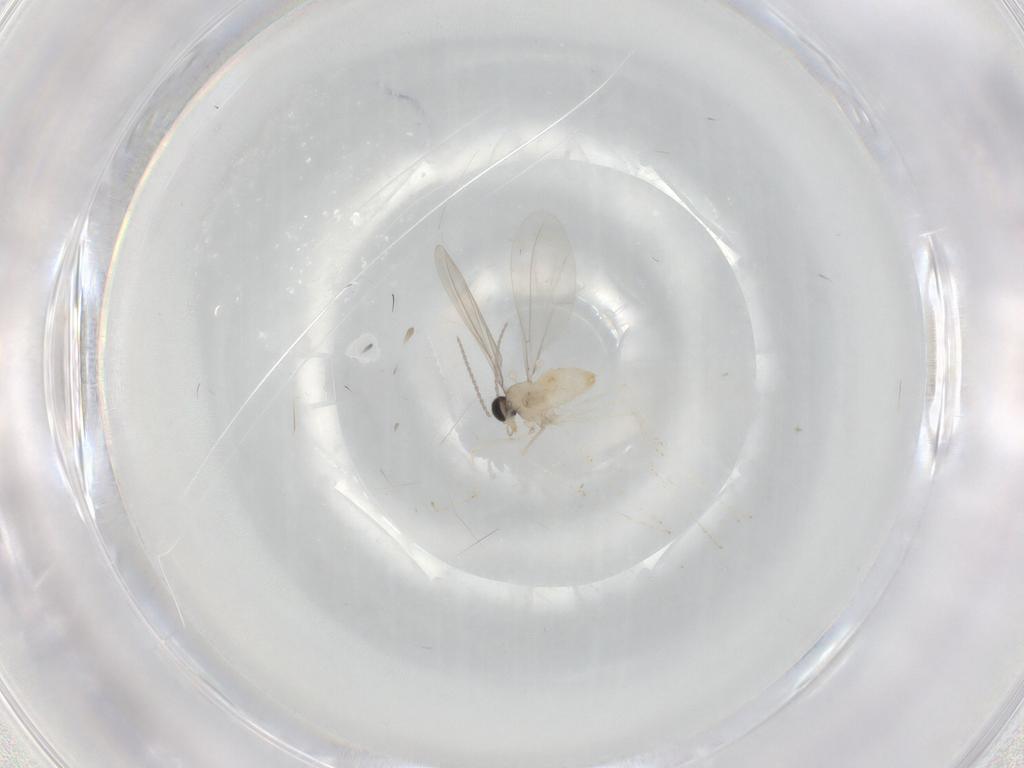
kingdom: Animalia
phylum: Arthropoda
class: Insecta
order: Diptera
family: Cecidomyiidae
